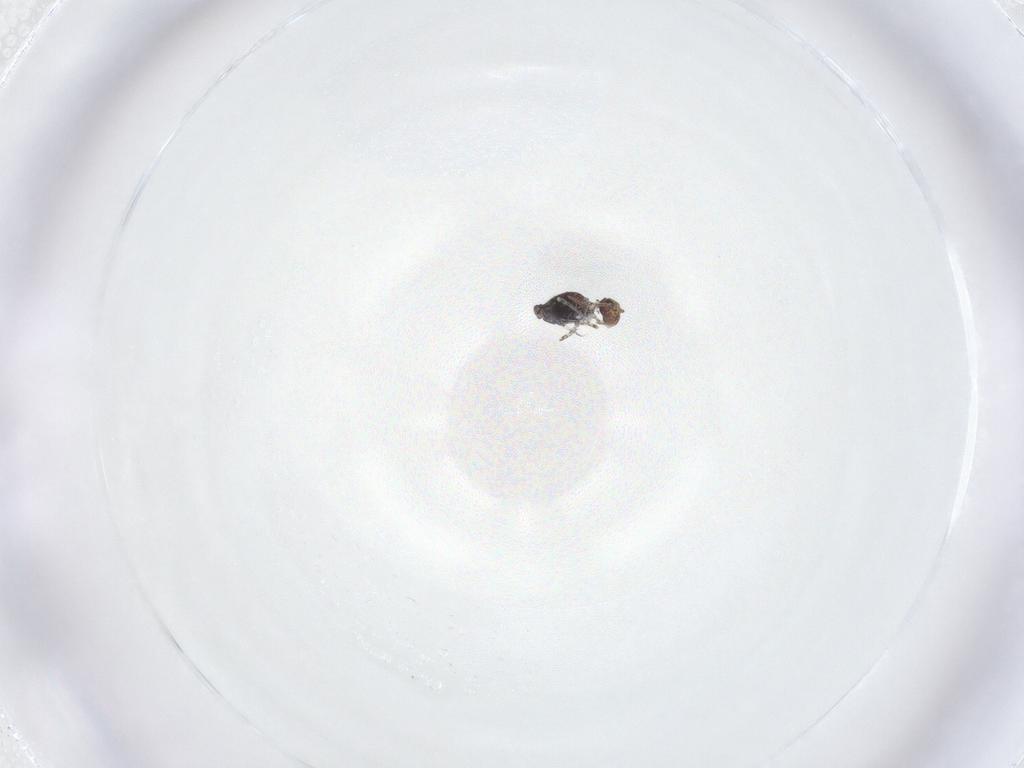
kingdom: Animalia
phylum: Arthropoda
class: Collembola
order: Symphypleona
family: Bourletiellidae
